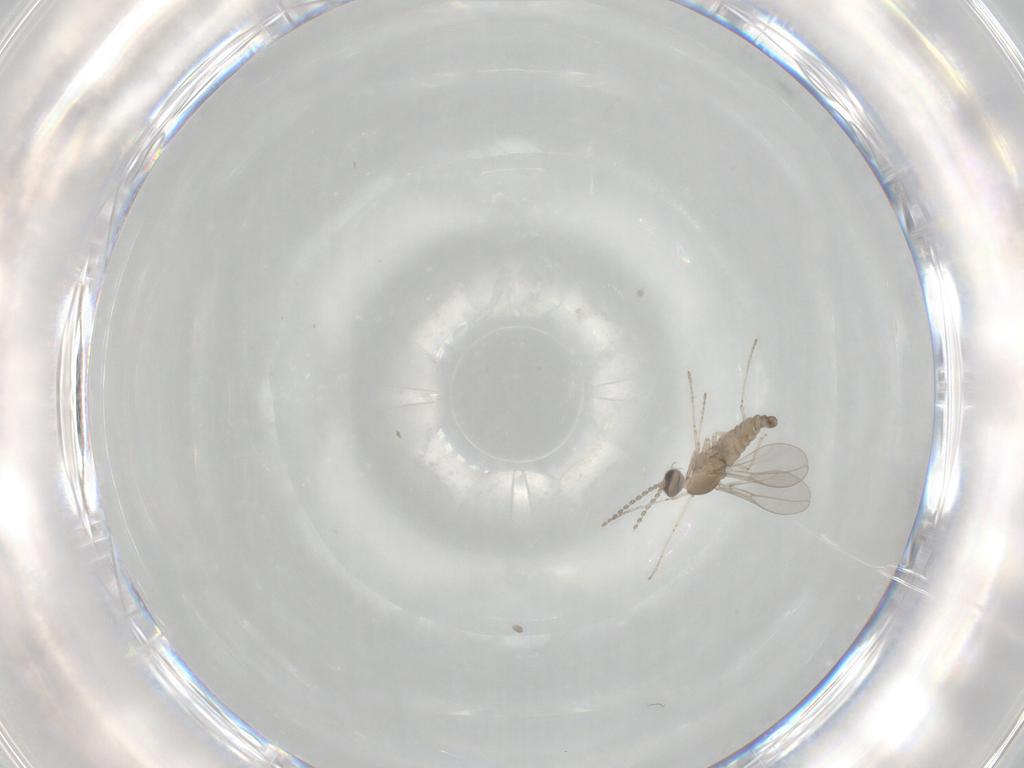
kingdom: Animalia
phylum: Arthropoda
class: Insecta
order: Diptera
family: Cecidomyiidae
